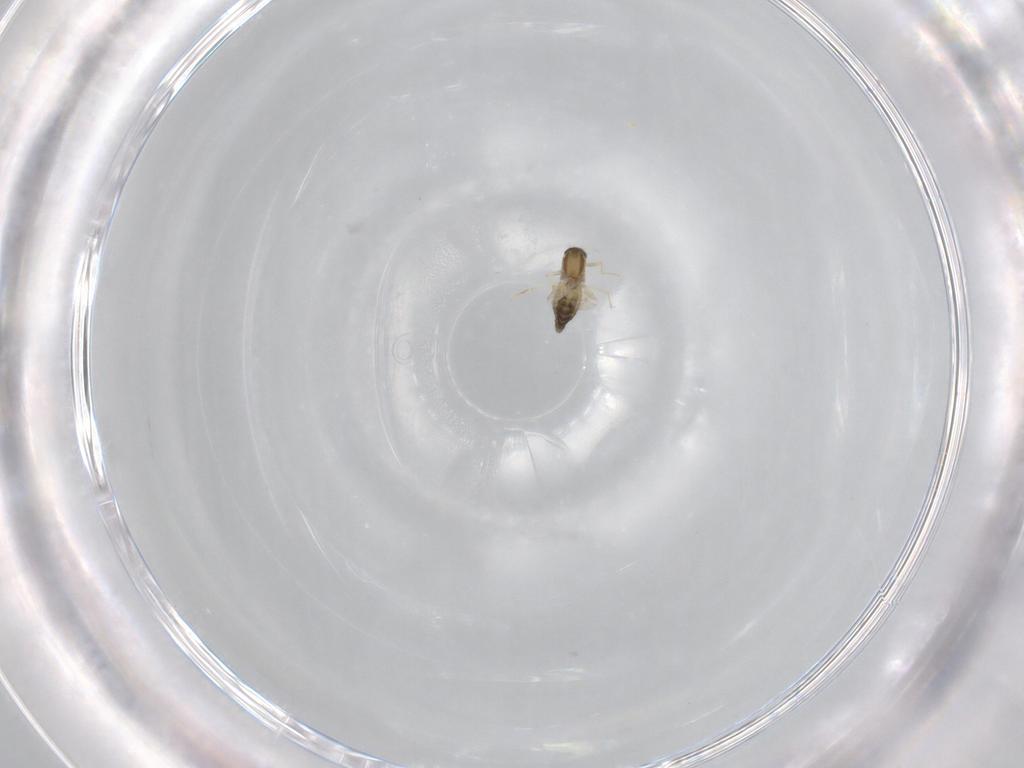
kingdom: Animalia
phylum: Arthropoda
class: Insecta
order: Diptera
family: Chironomidae
